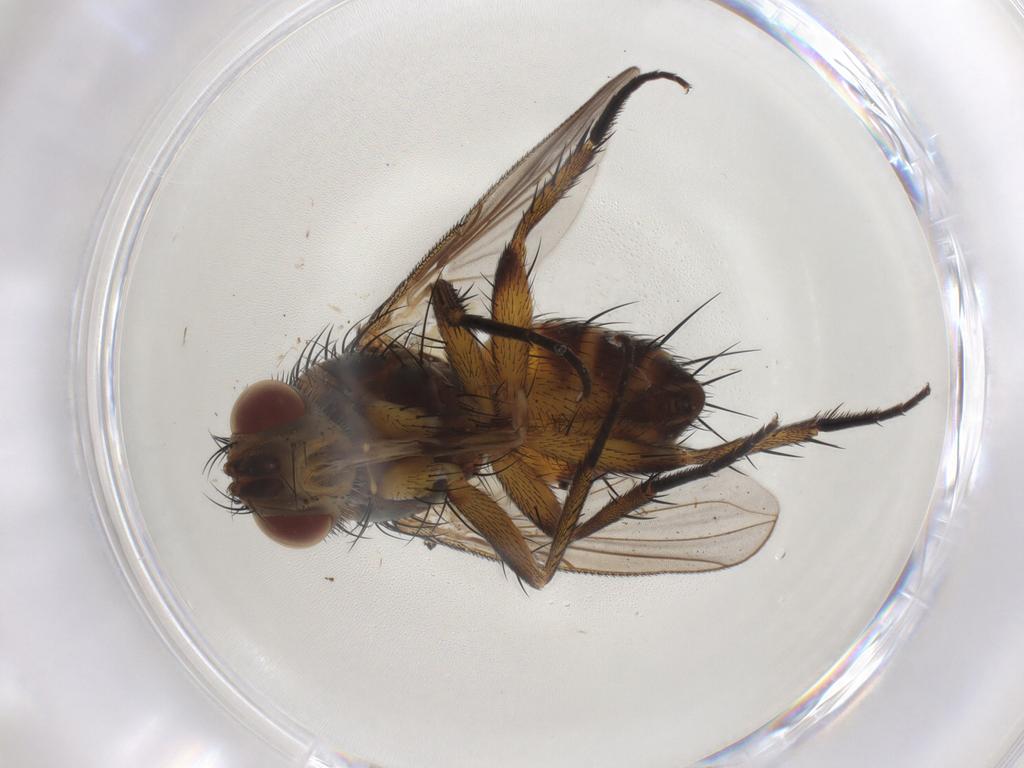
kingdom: Animalia
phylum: Arthropoda
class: Insecta
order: Diptera
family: Tachinidae
